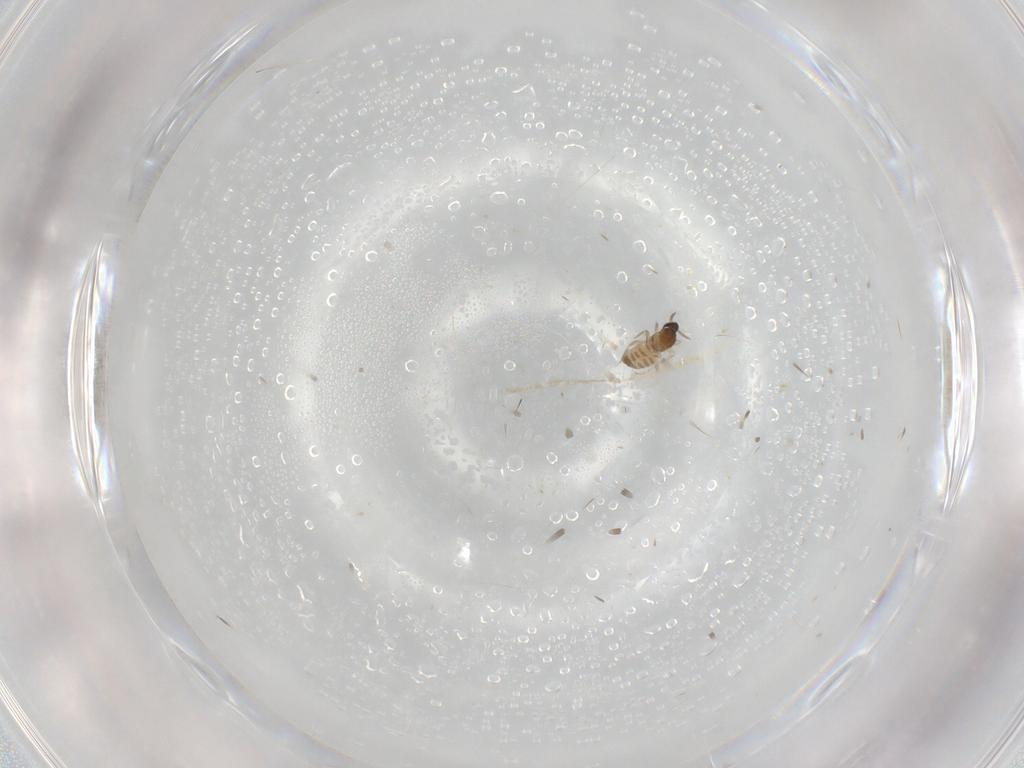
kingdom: Animalia
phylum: Arthropoda
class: Insecta
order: Diptera
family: Cecidomyiidae
